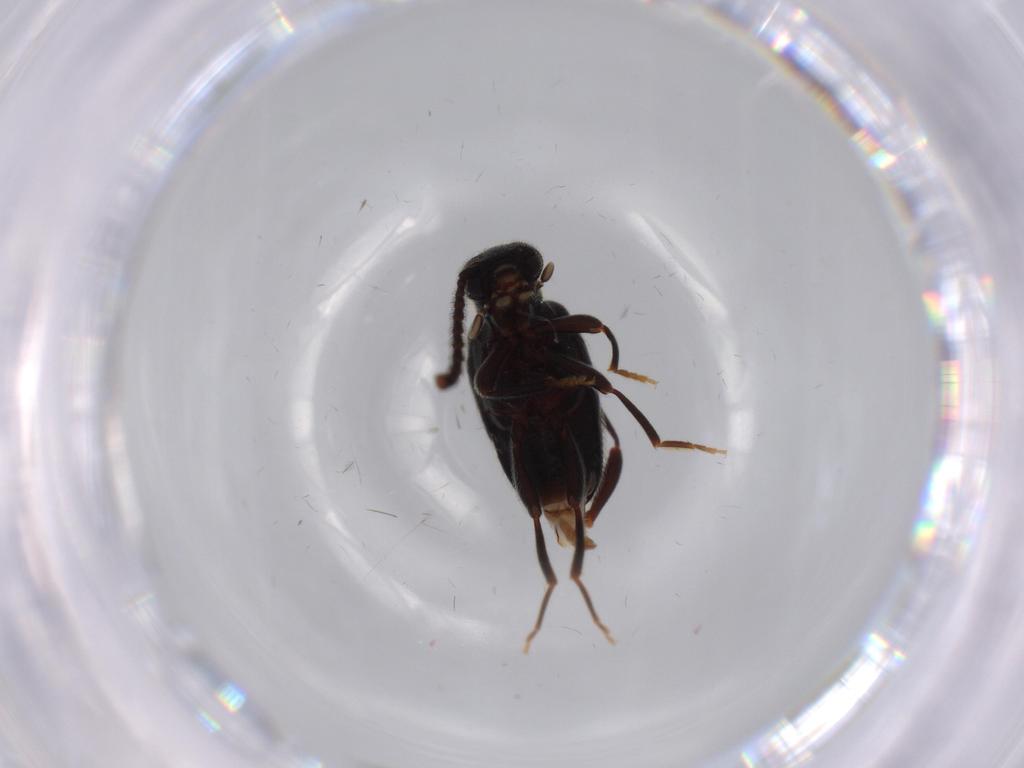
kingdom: Animalia
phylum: Arthropoda
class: Insecta
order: Coleoptera
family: Aderidae
